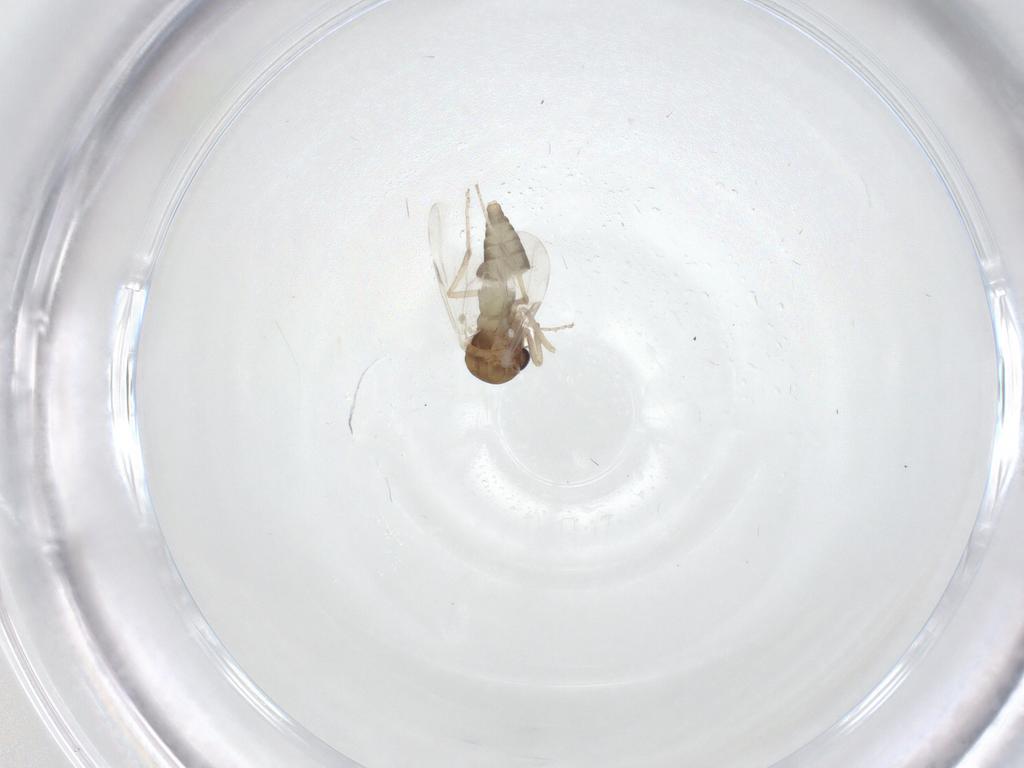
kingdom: Animalia
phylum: Arthropoda
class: Insecta
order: Diptera
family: Ceratopogonidae
